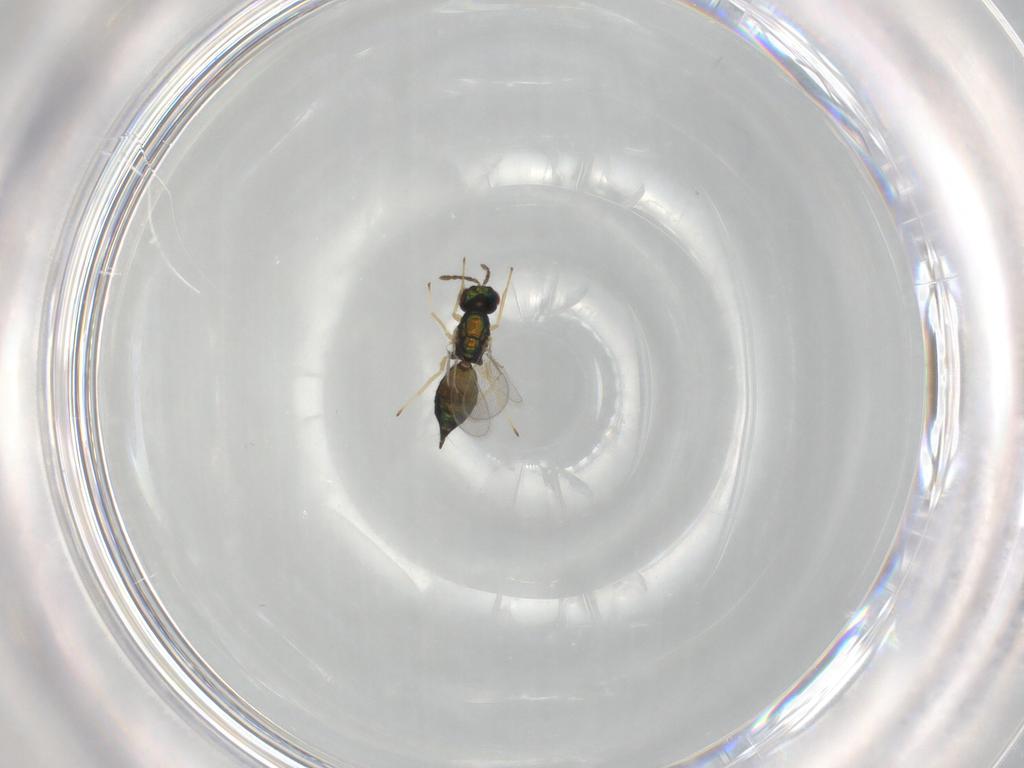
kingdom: Animalia
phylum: Arthropoda
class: Insecta
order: Hymenoptera
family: Eulophidae
